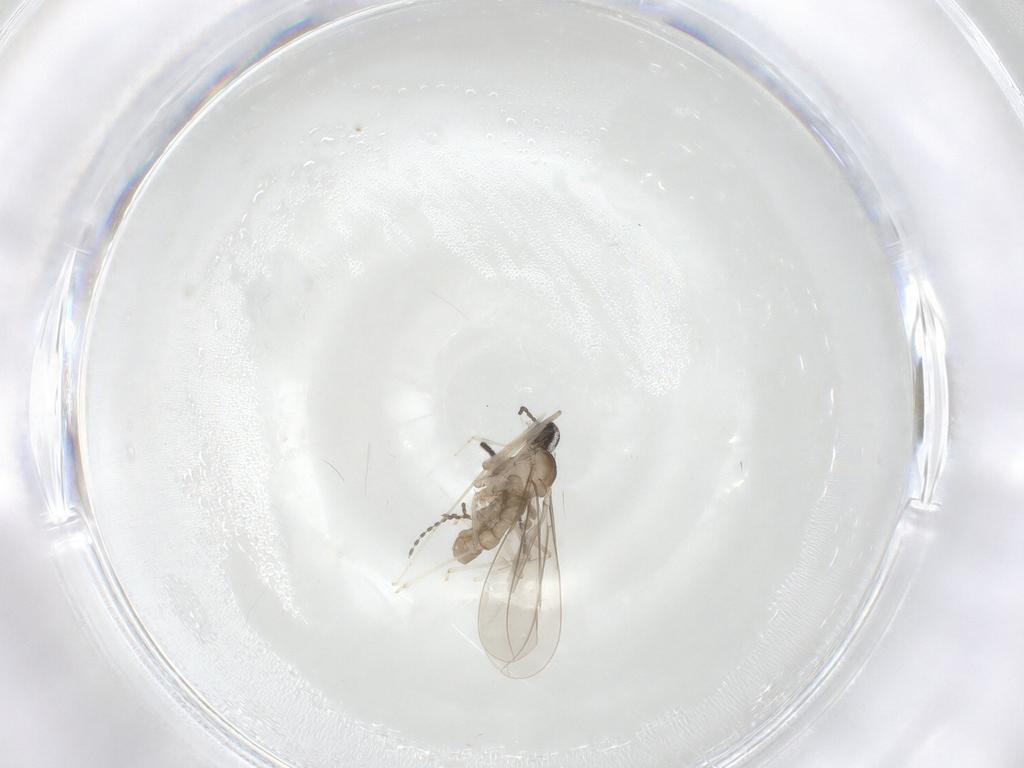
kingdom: Animalia
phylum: Arthropoda
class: Insecta
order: Diptera
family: Cecidomyiidae
